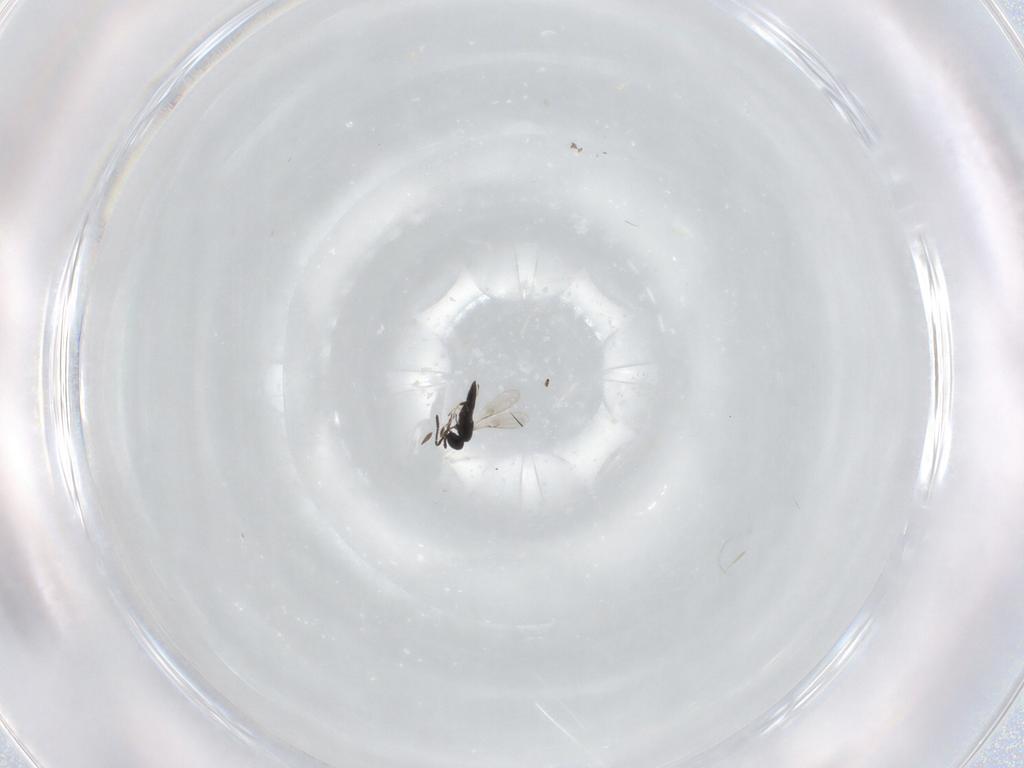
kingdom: Animalia
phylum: Arthropoda
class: Insecta
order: Hymenoptera
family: Scelionidae
